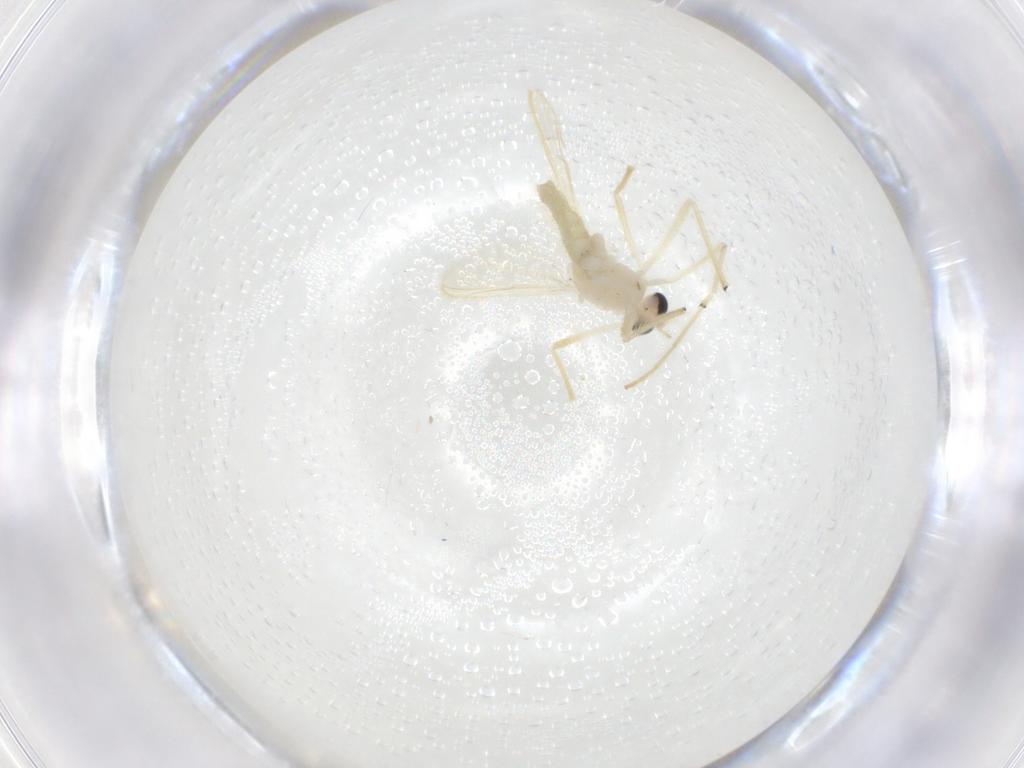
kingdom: Animalia
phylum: Arthropoda
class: Insecta
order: Diptera
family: Chironomidae
